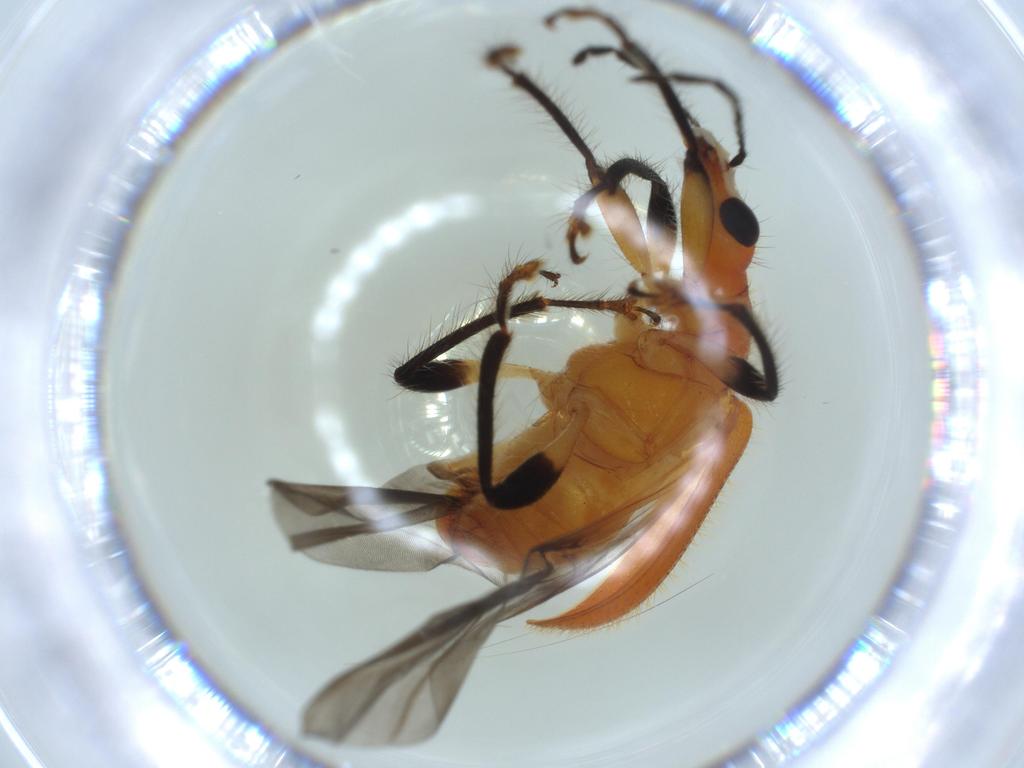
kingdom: Animalia
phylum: Arthropoda
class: Insecta
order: Coleoptera
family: Attelabidae
